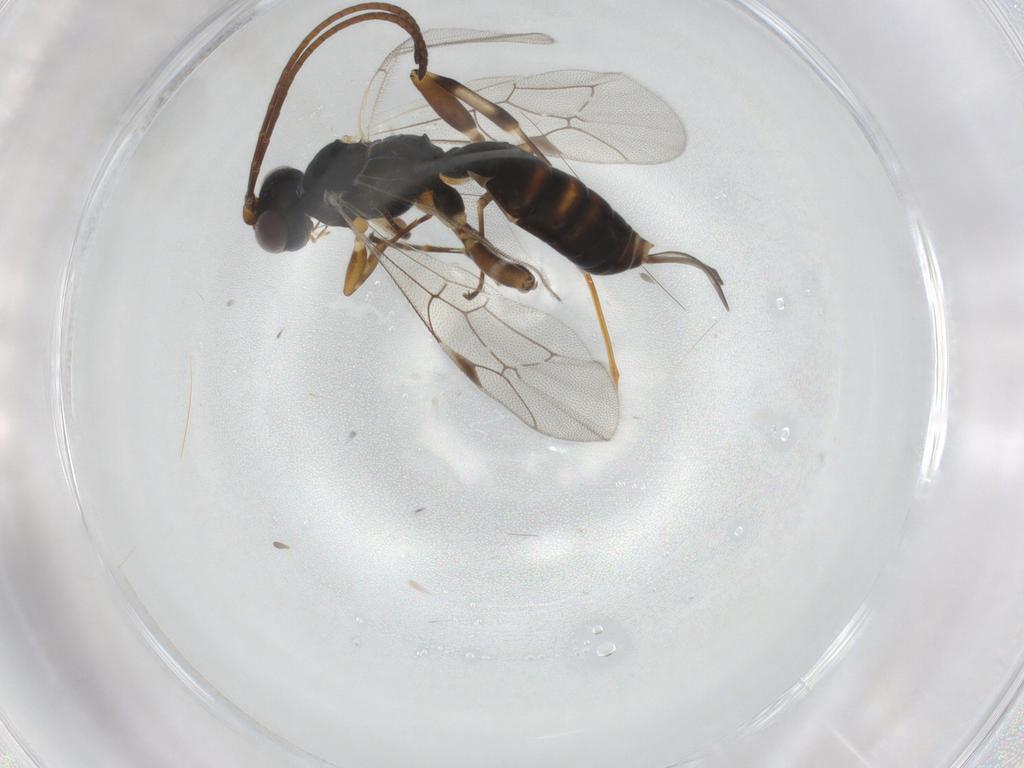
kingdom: Animalia
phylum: Arthropoda
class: Insecta
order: Hymenoptera
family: Ichneumonidae
